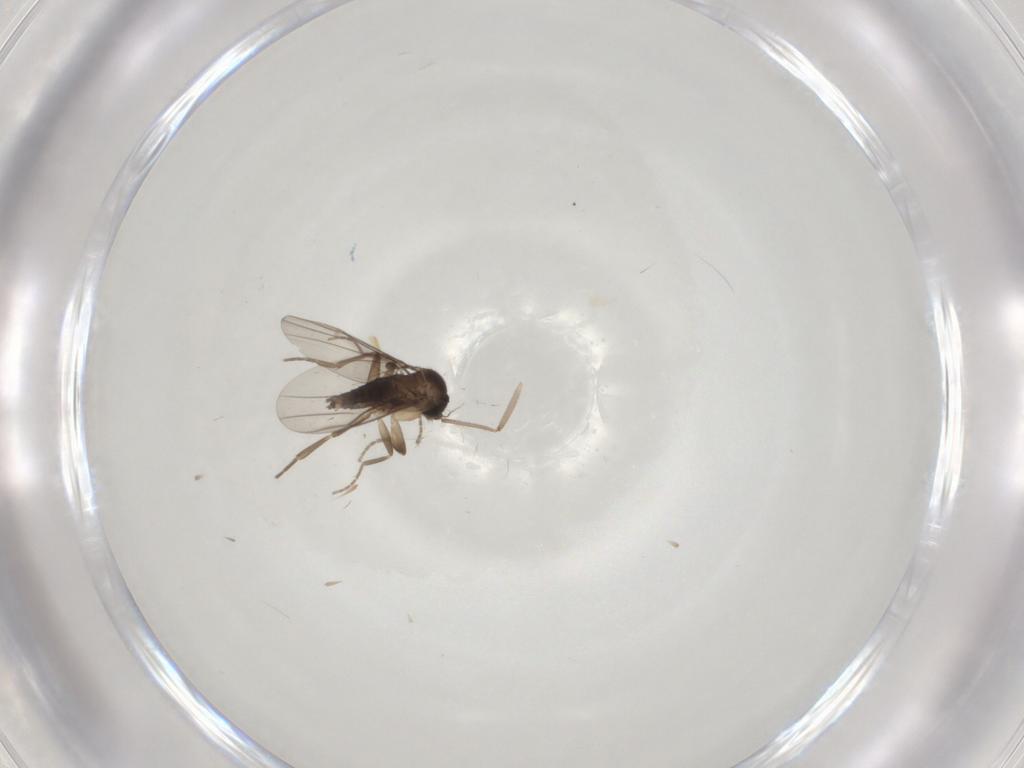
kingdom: Animalia
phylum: Arthropoda
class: Insecta
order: Diptera
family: Chironomidae
